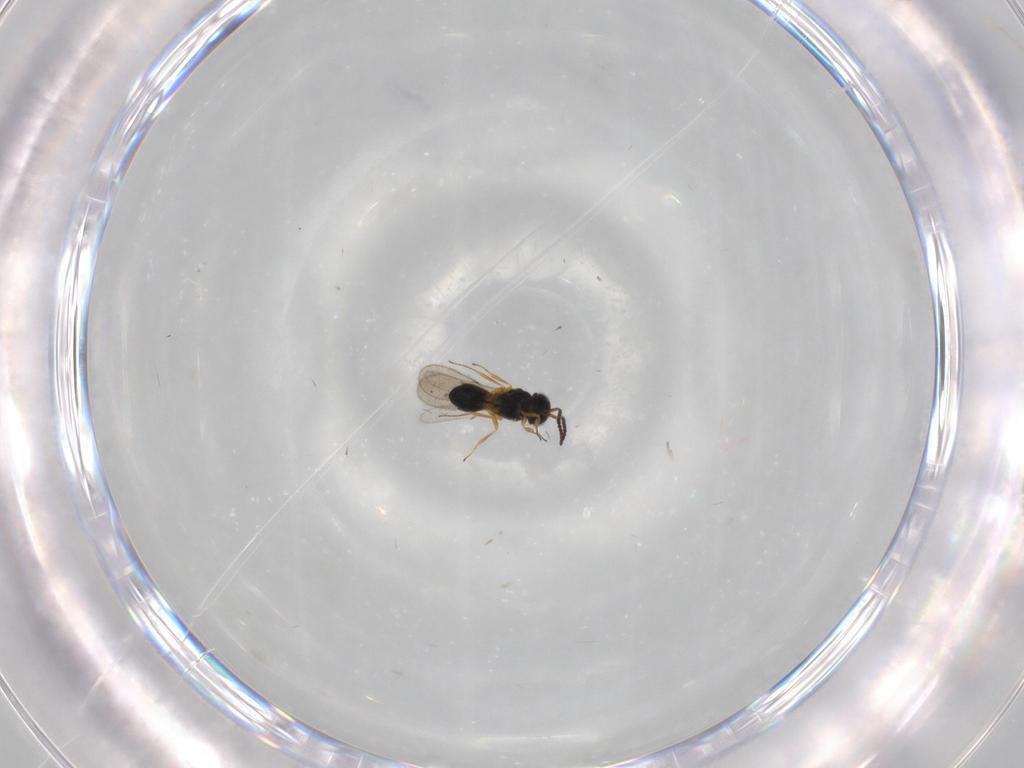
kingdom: Animalia
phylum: Arthropoda
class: Insecta
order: Hymenoptera
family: Scelionidae
